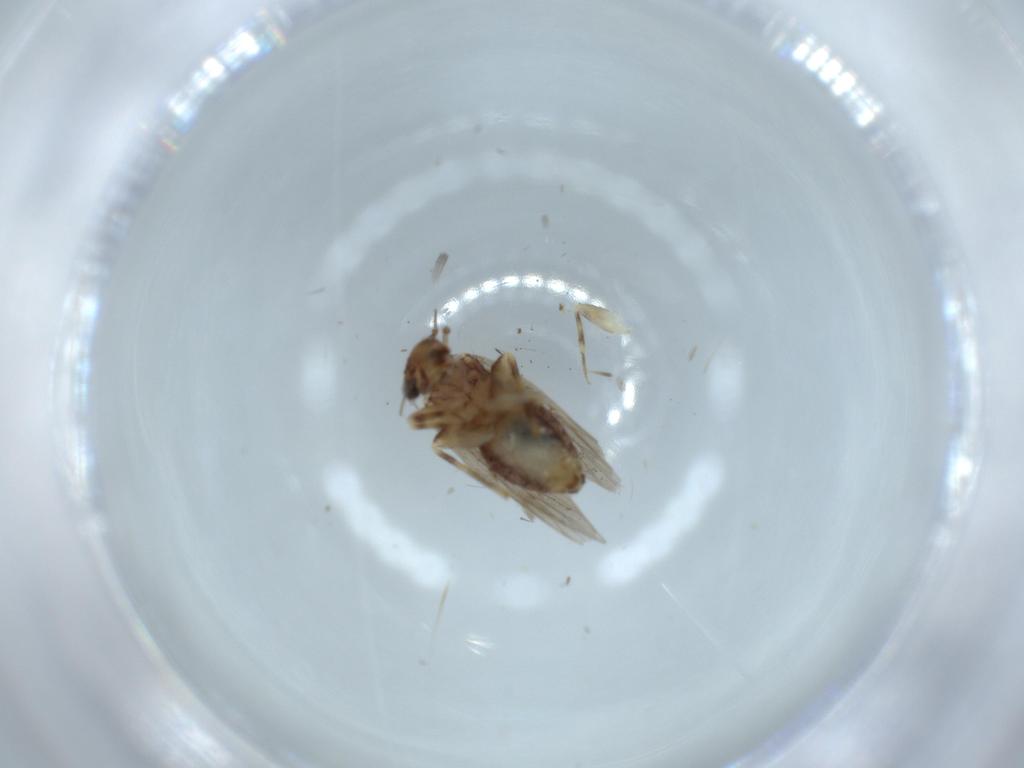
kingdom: Animalia
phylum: Arthropoda
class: Insecta
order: Psocodea
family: Lepidopsocidae
